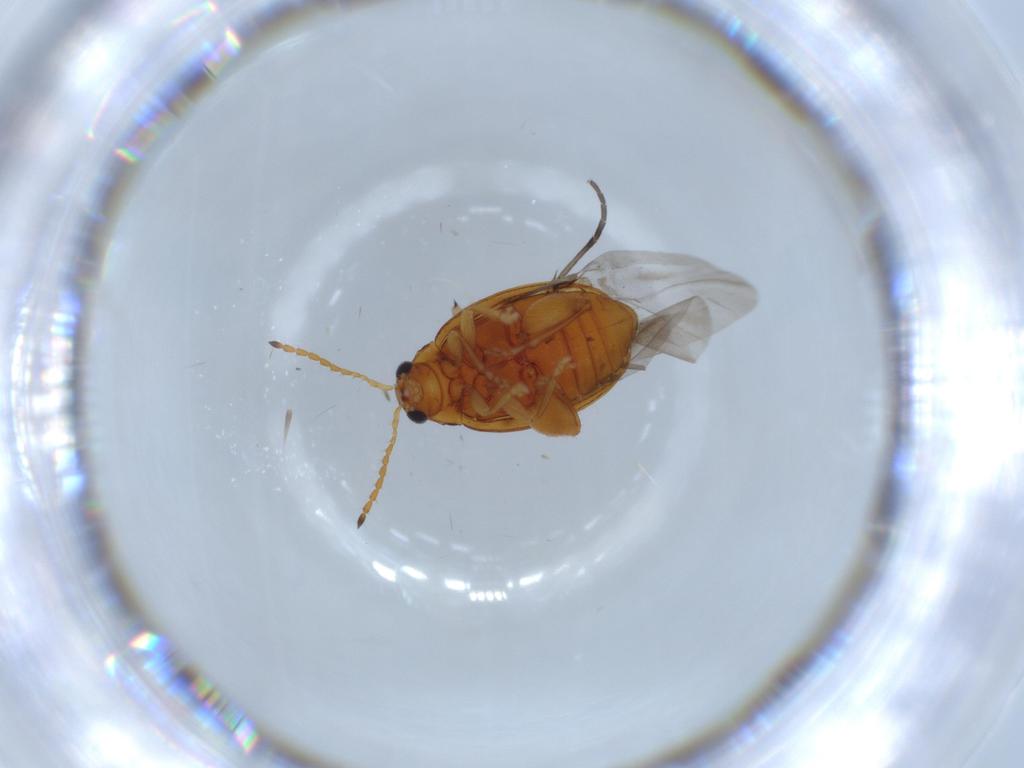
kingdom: Animalia
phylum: Arthropoda
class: Insecta
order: Coleoptera
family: Chrysomelidae
